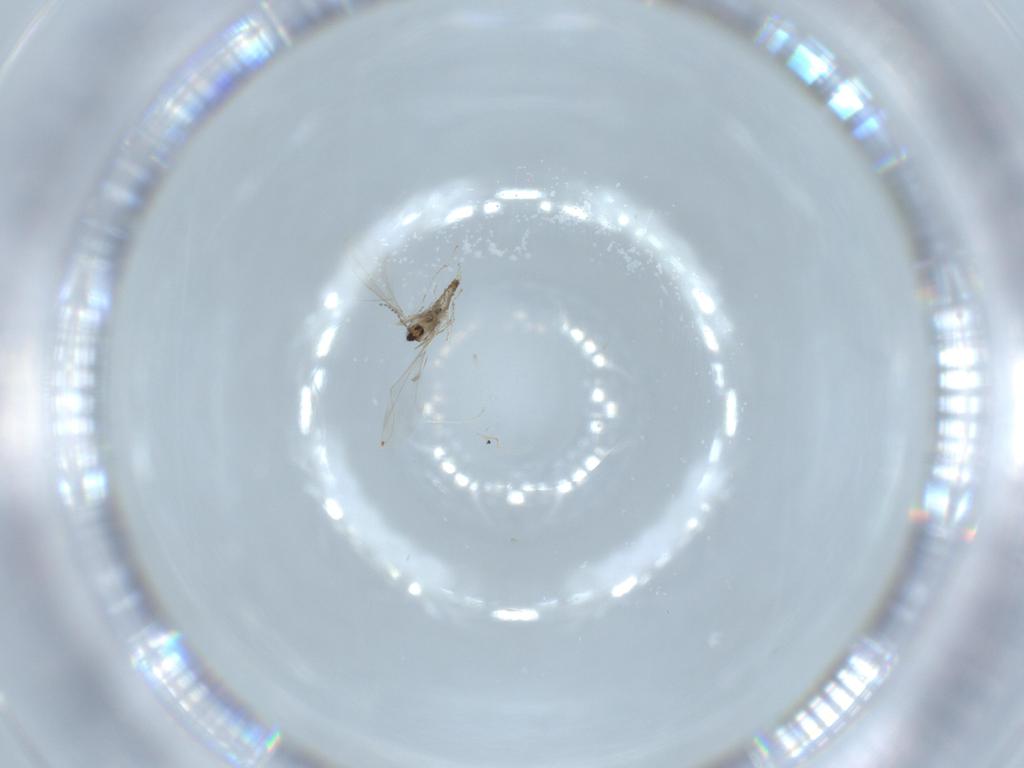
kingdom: Animalia
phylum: Arthropoda
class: Insecta
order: Diptera
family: Cecidomyiidae
